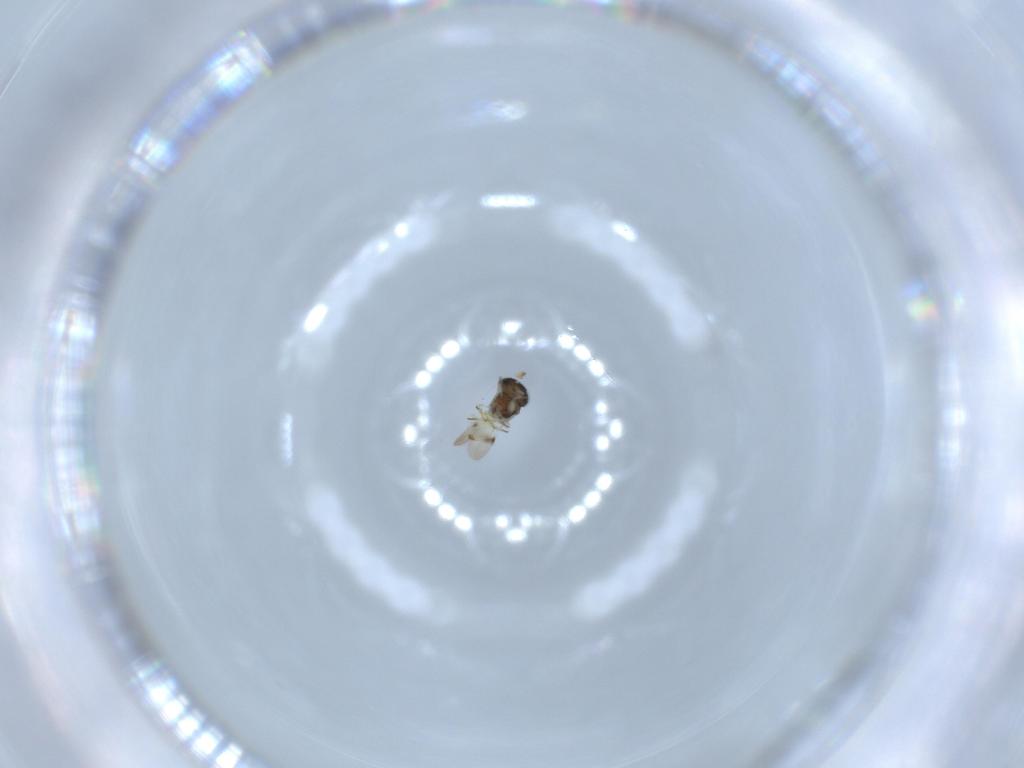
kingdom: Animalia
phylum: Arthropoda
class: Insecta
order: Hymenoptera
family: Scelionidae
